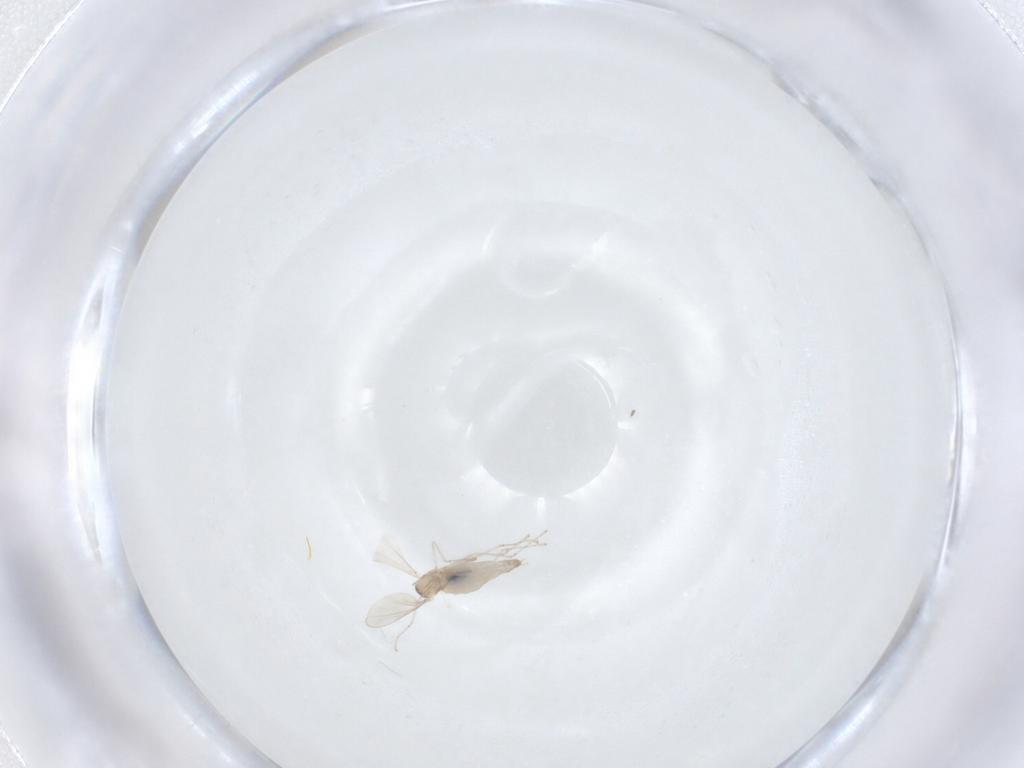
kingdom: Animalia
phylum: Arthropoda
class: Insecta
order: Diptera
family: Cecidomyiidae
